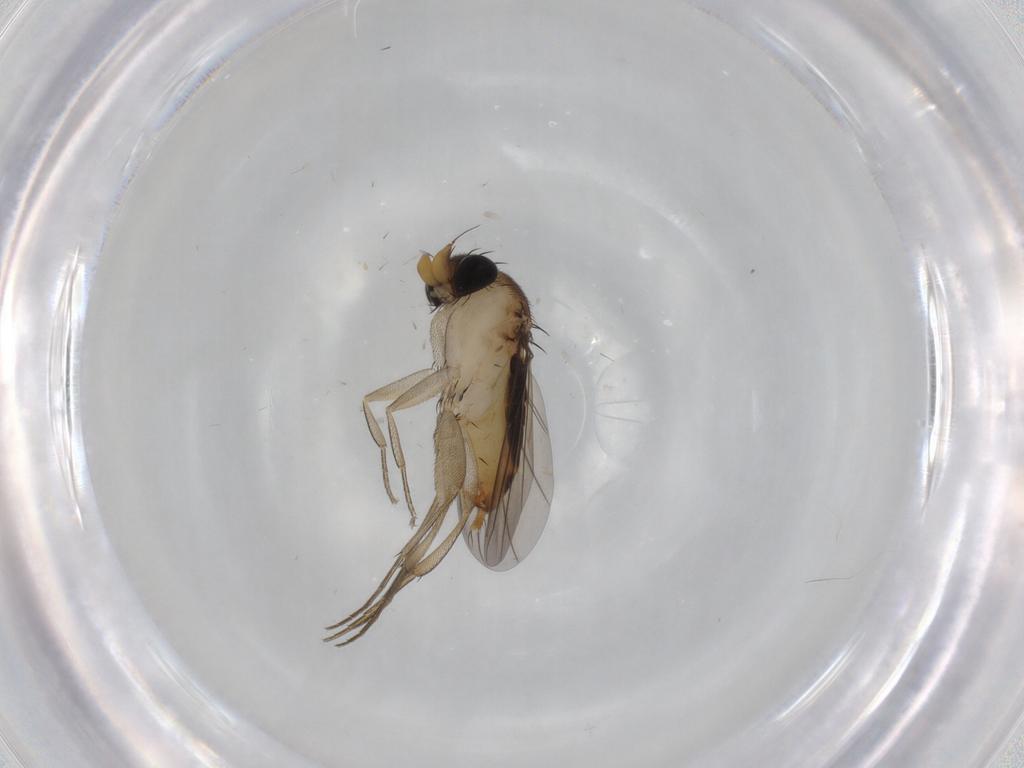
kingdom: Animalia
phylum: Arthropoda
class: Insecta
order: Diptera
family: Phoridae
